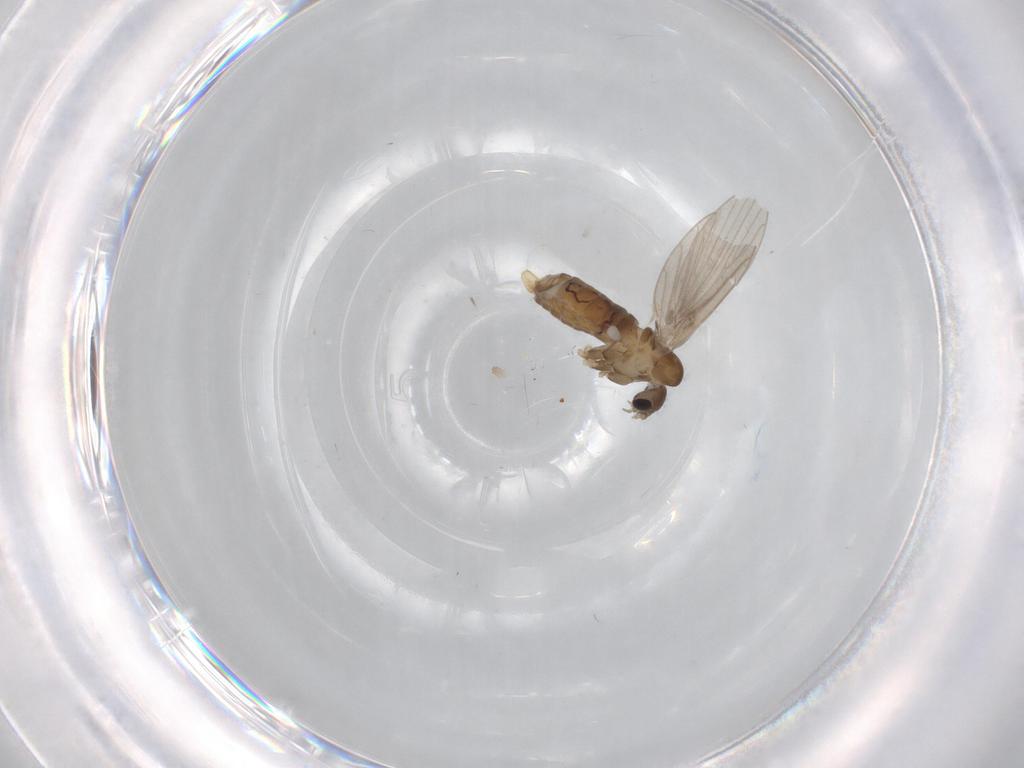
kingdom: Animalia
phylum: Arthropoda
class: Insecta
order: Diptera
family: Psychodidae
